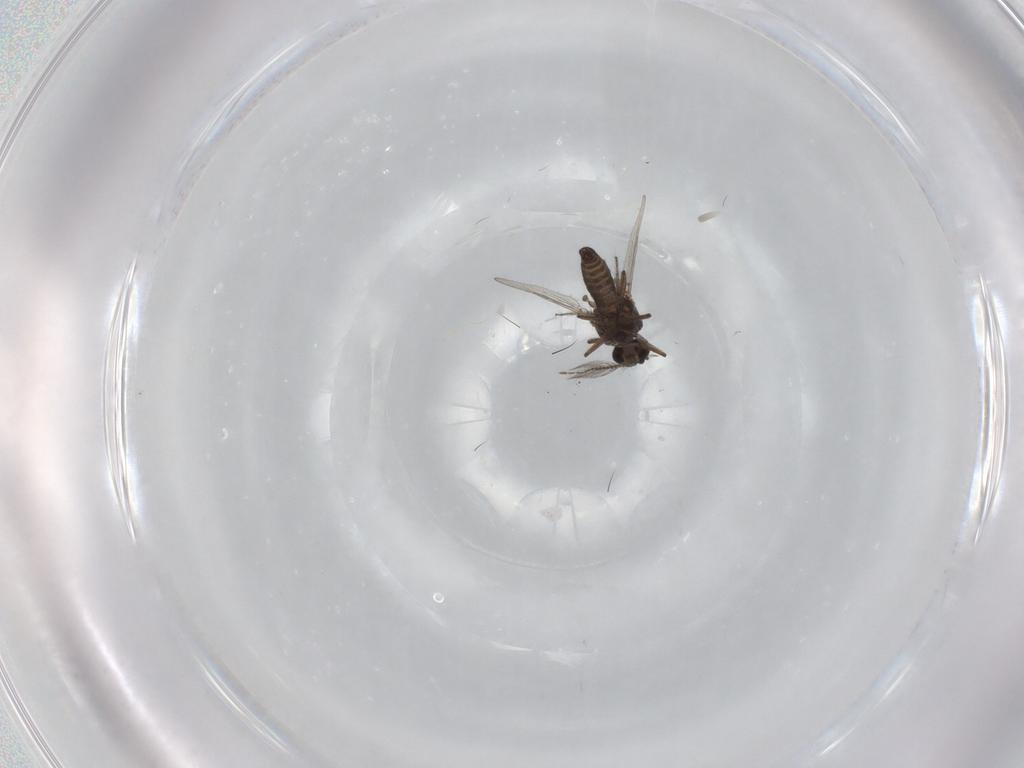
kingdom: Animalia
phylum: Arthropoda
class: Insecta
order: Diptera
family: Ceratopogonidae
